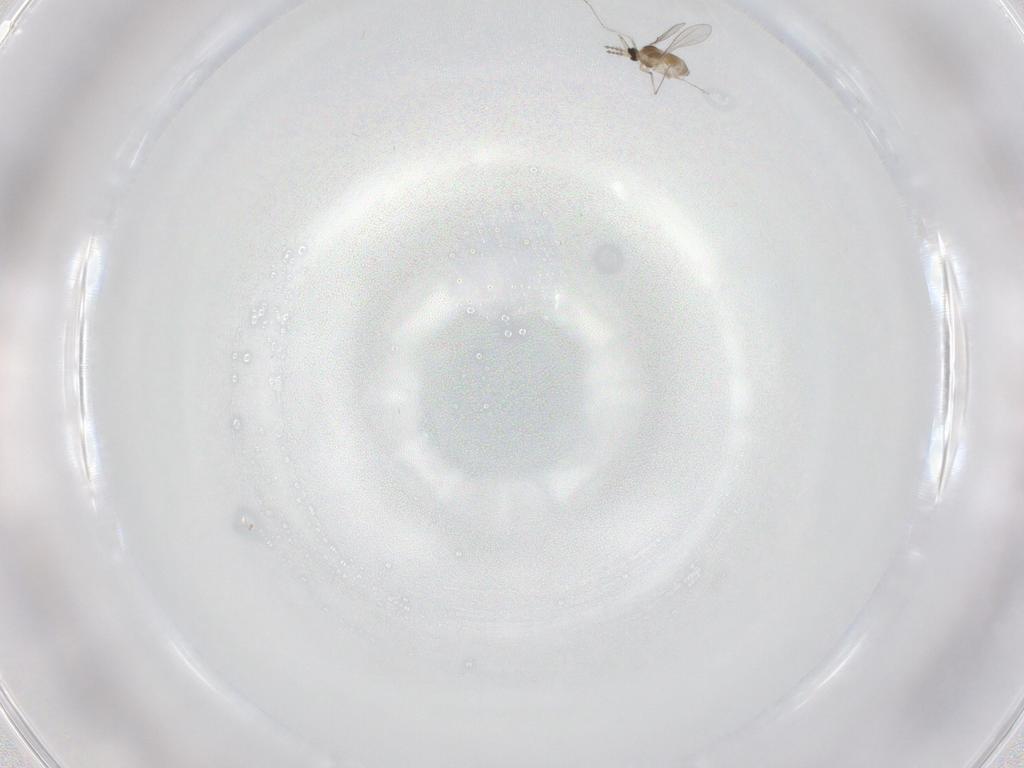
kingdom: Animalia
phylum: Arthropoda
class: Insecta
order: Diptera
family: Cecidomyiidae
